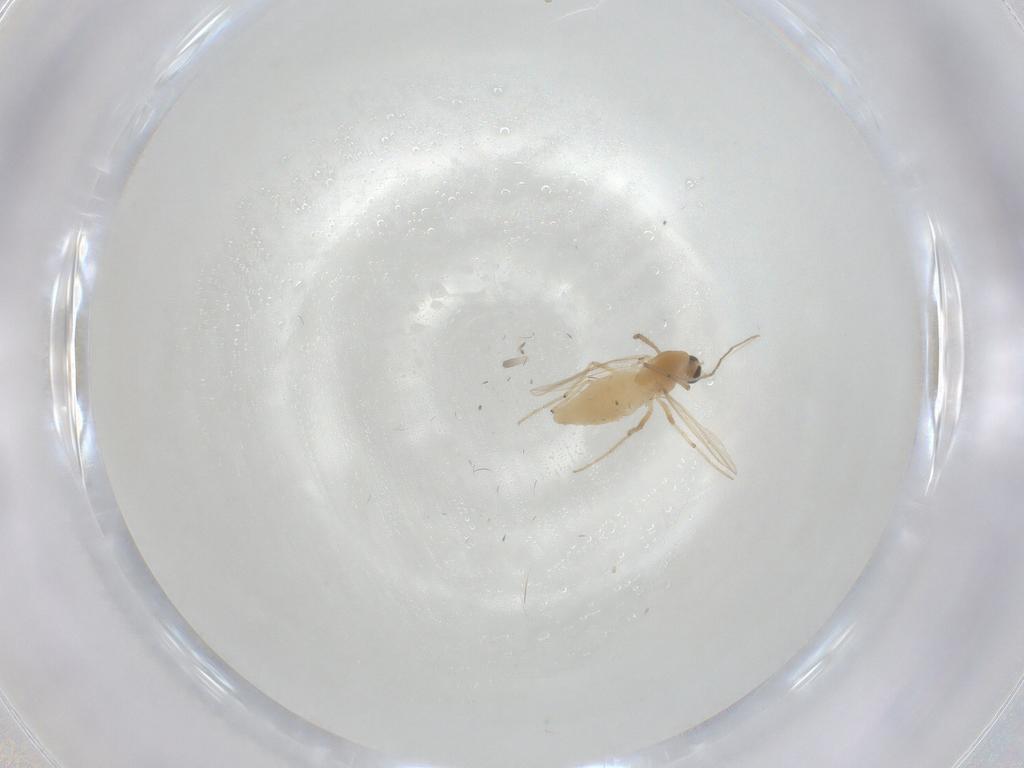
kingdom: Animalia
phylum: Arthropoda
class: Insecta
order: Diptera
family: Chironomidae
